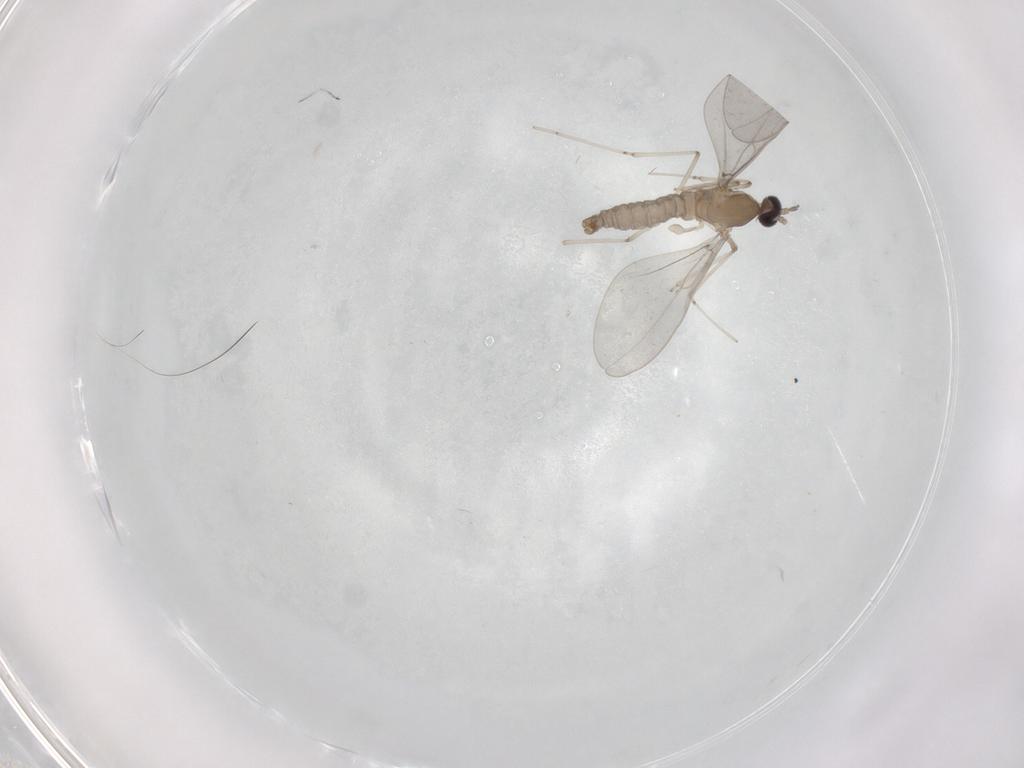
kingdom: Animalia
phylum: Arthropoda
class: Insecta
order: Diptera
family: Cecidomyiidae
